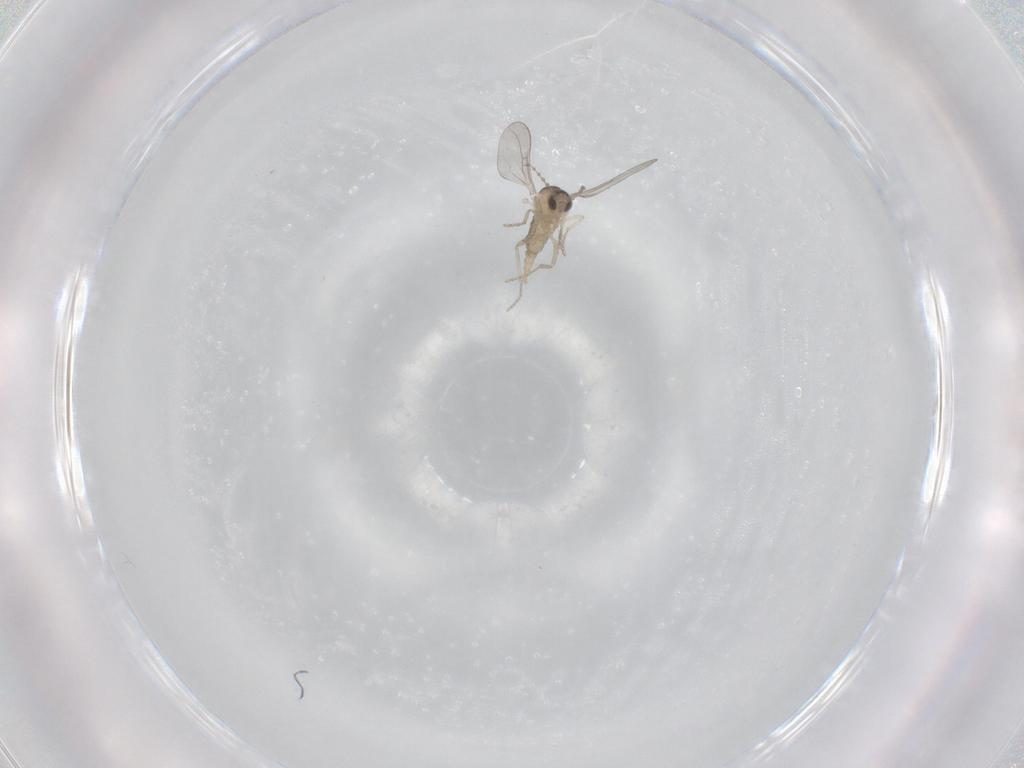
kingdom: Animalia
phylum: Arthropoda
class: Insecta
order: Diptera
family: Cecidomyiidae
